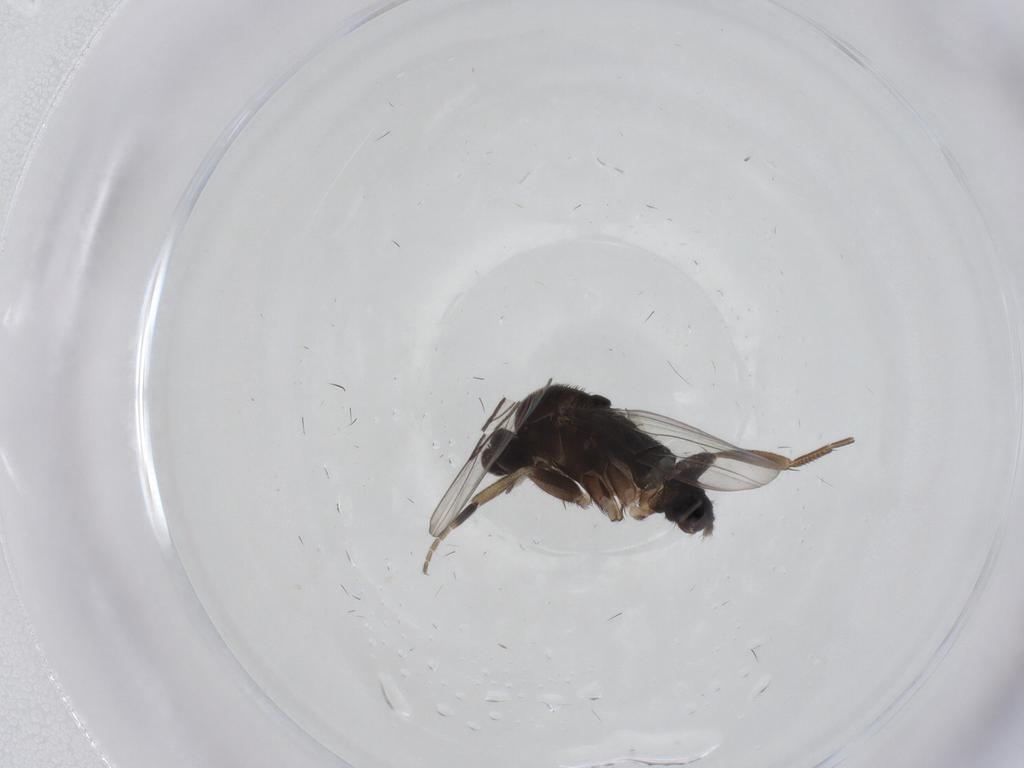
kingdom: Animalia
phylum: Arthropoda
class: Insecta
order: Diptera
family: Phoridae
